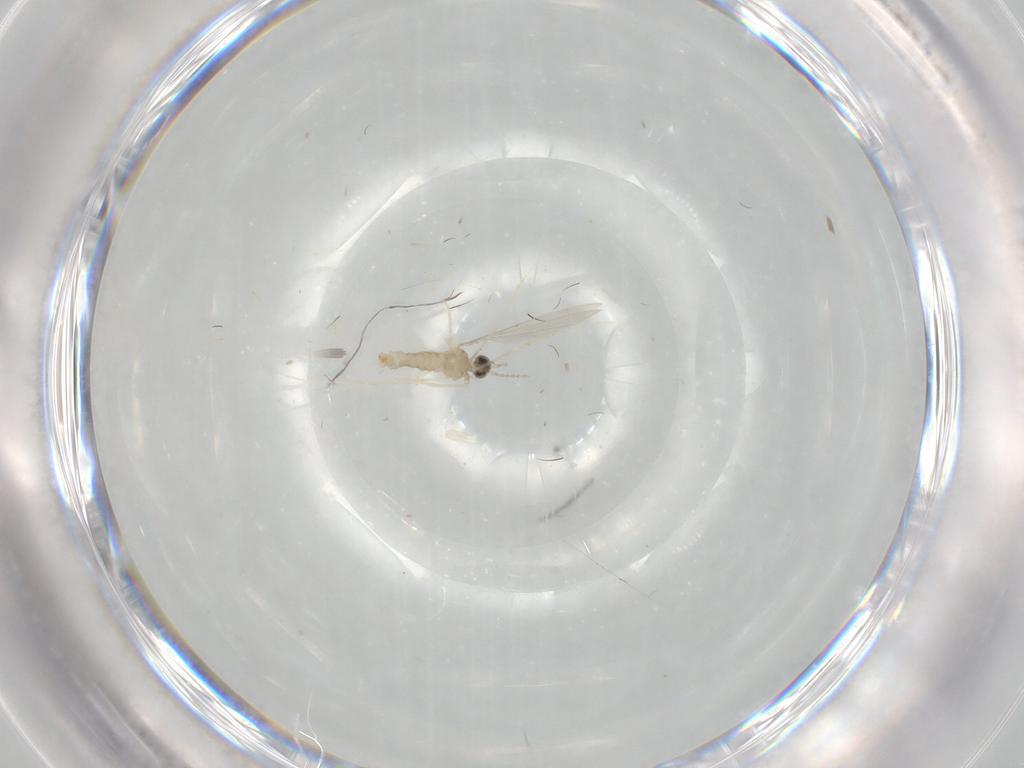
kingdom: Animalia
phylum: Arthropoda
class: Insecta
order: Diptera
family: Cecidomyiidae
